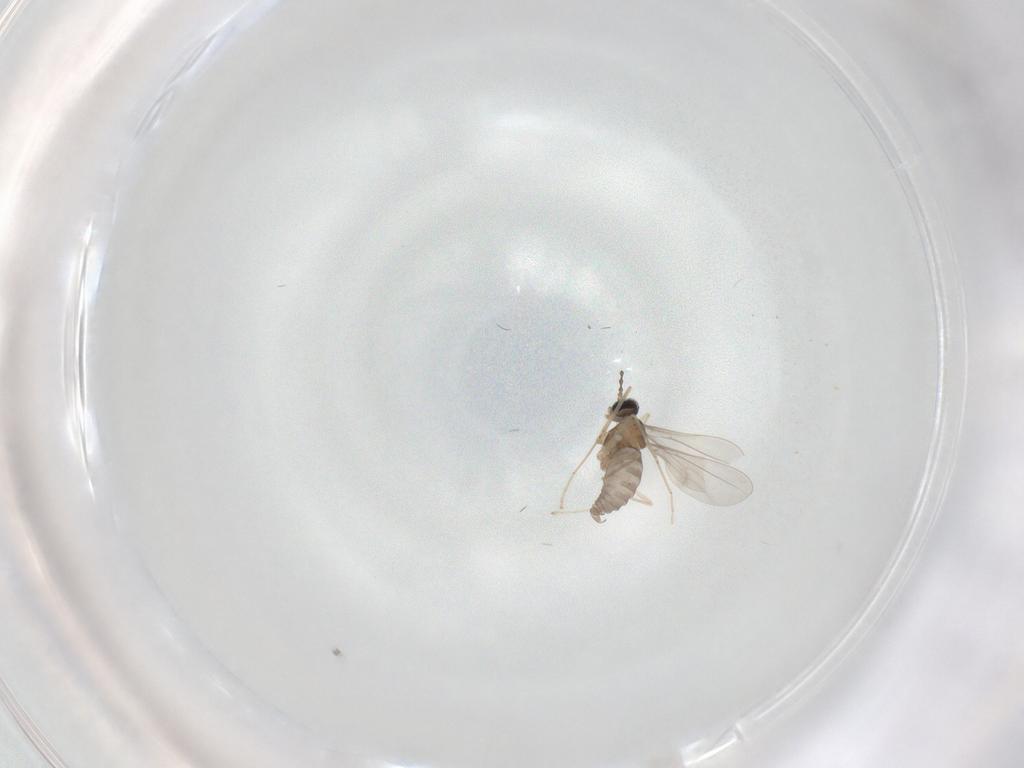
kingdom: Animalia
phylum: Arthropoda
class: Insecta
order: Diptera
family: Cecidomyiidae
